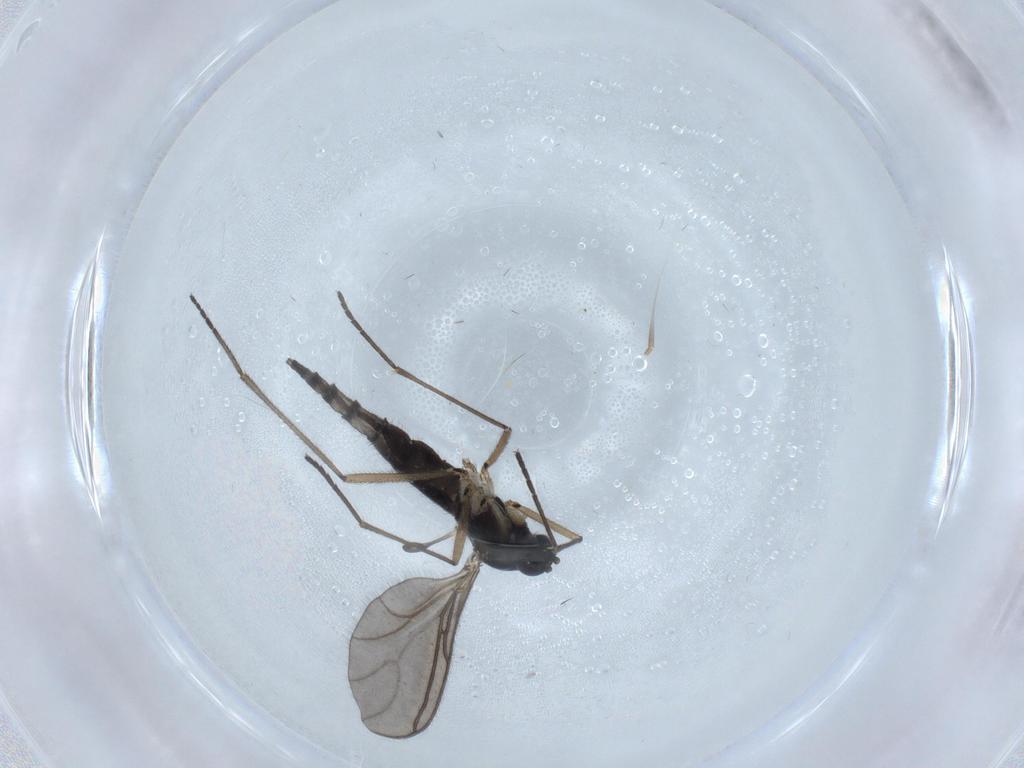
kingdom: Animalia
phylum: Arthropoda
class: Insecta
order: Diptera
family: Sciaridae
